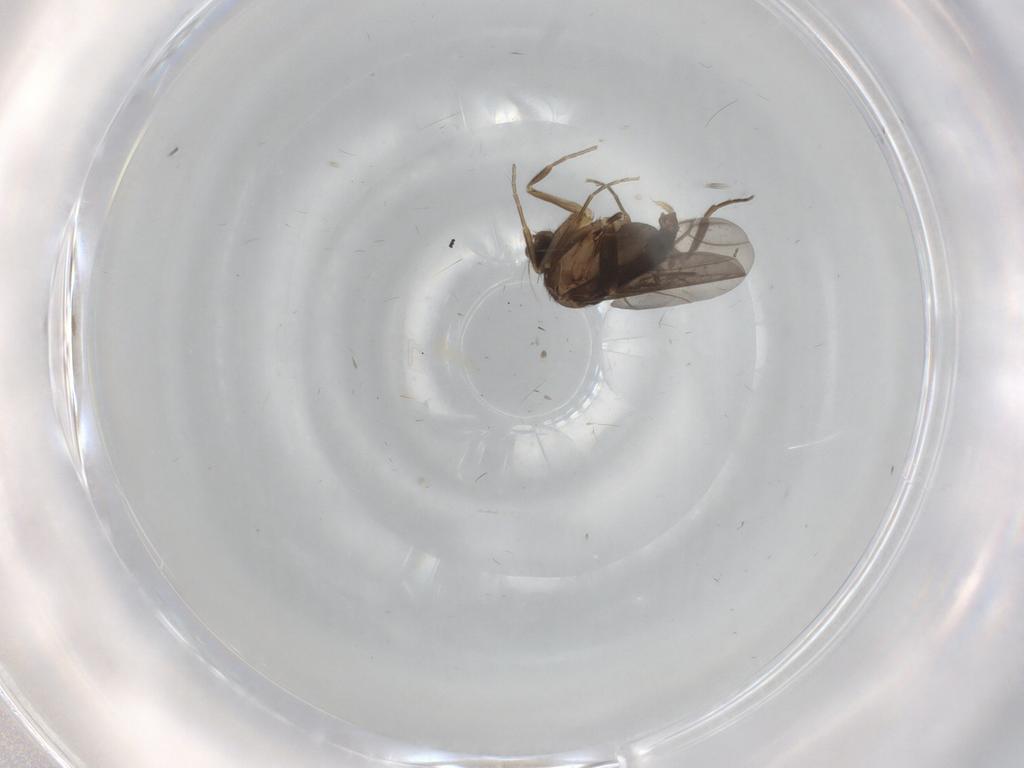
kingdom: Animalia
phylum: Arthropoda
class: Insecta
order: Diptera
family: Phoridae
